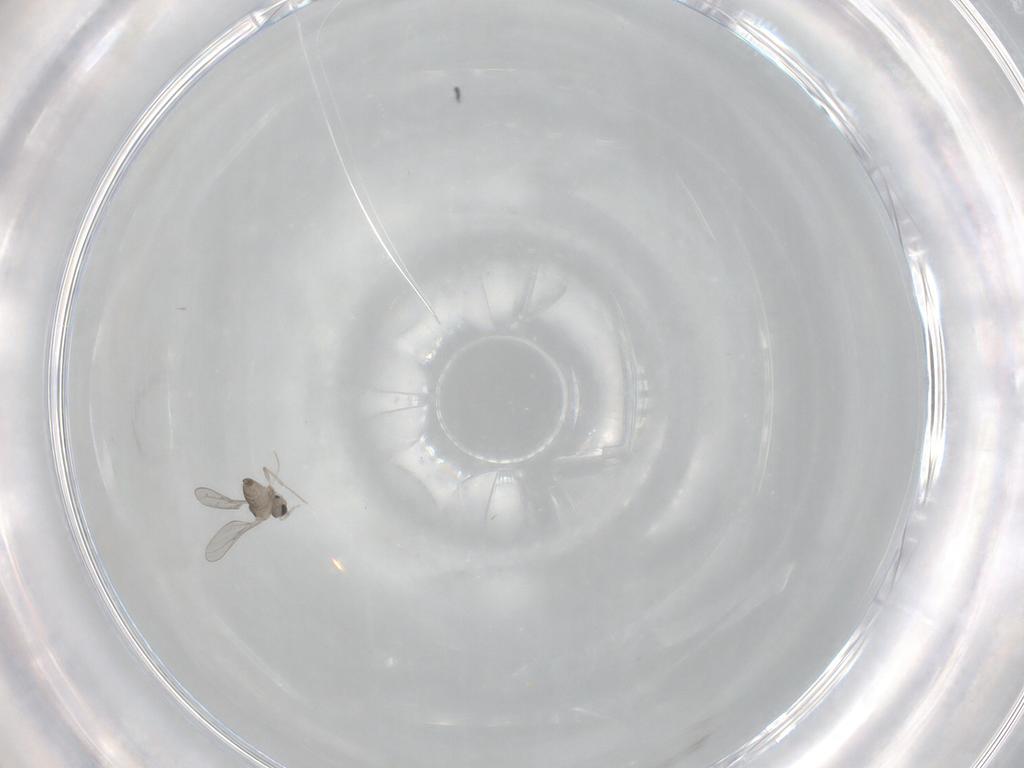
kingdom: Animalia
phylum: Arthropoda
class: Insecta
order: Diptera
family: Cecidomyiidae
